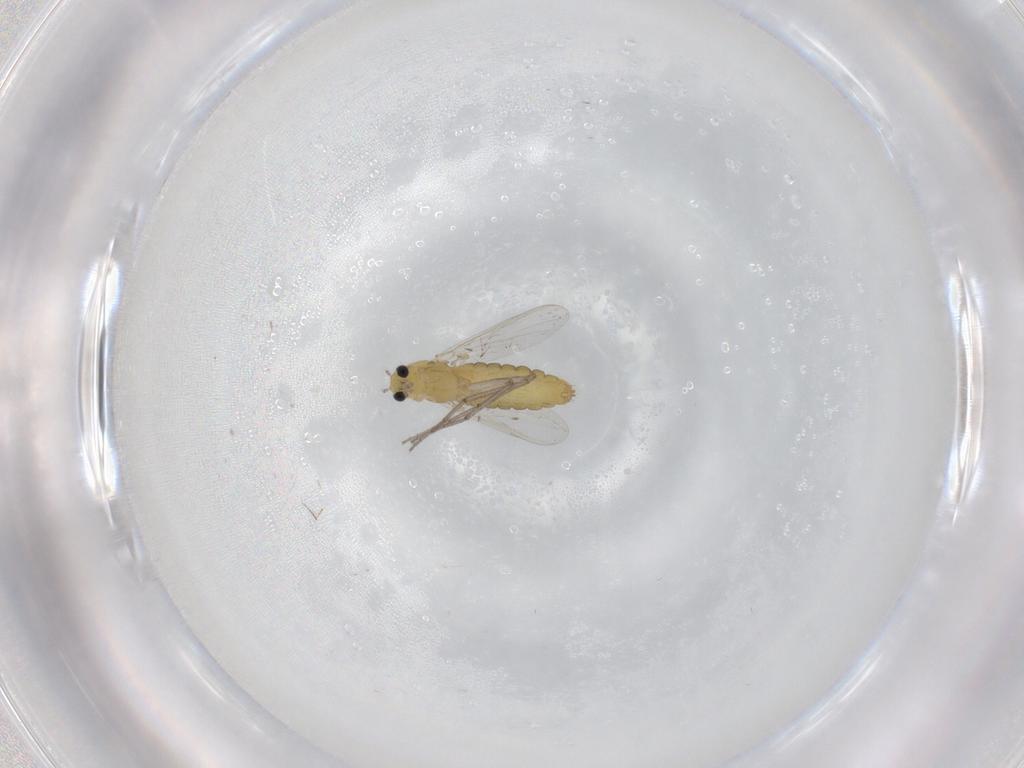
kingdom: Animalia
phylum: Arthropoda
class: Insecta
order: Diptera
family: Chironomidae
